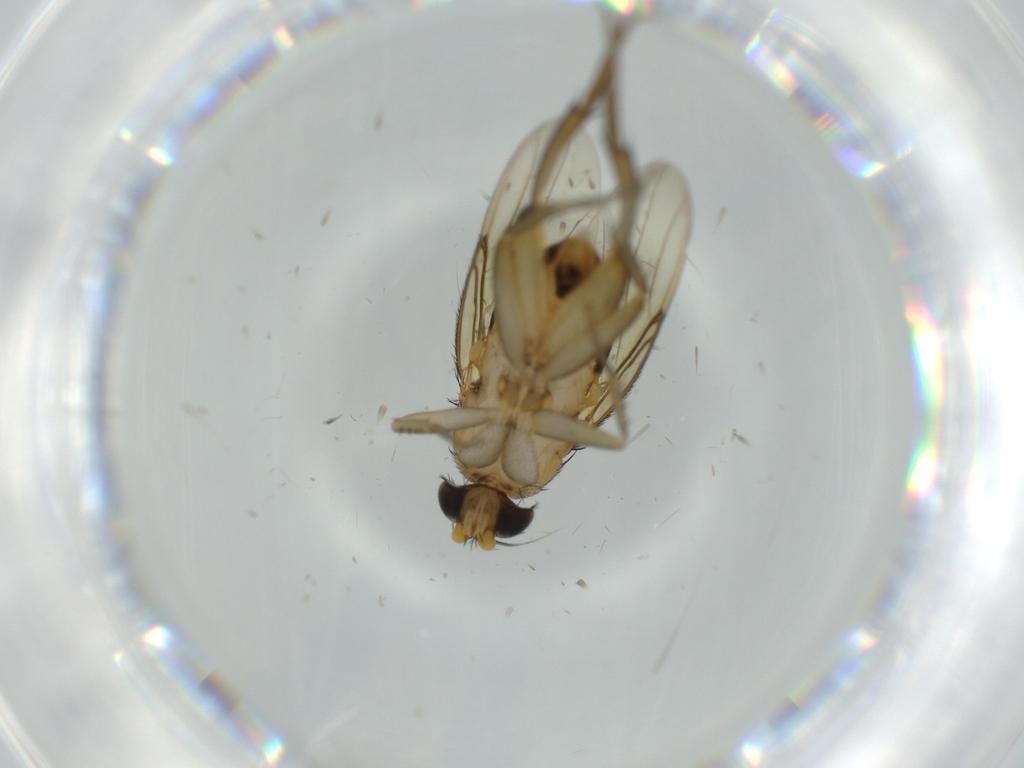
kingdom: Animalia
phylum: Arthropoda
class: Insecta
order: Diptera
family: Phoridae
